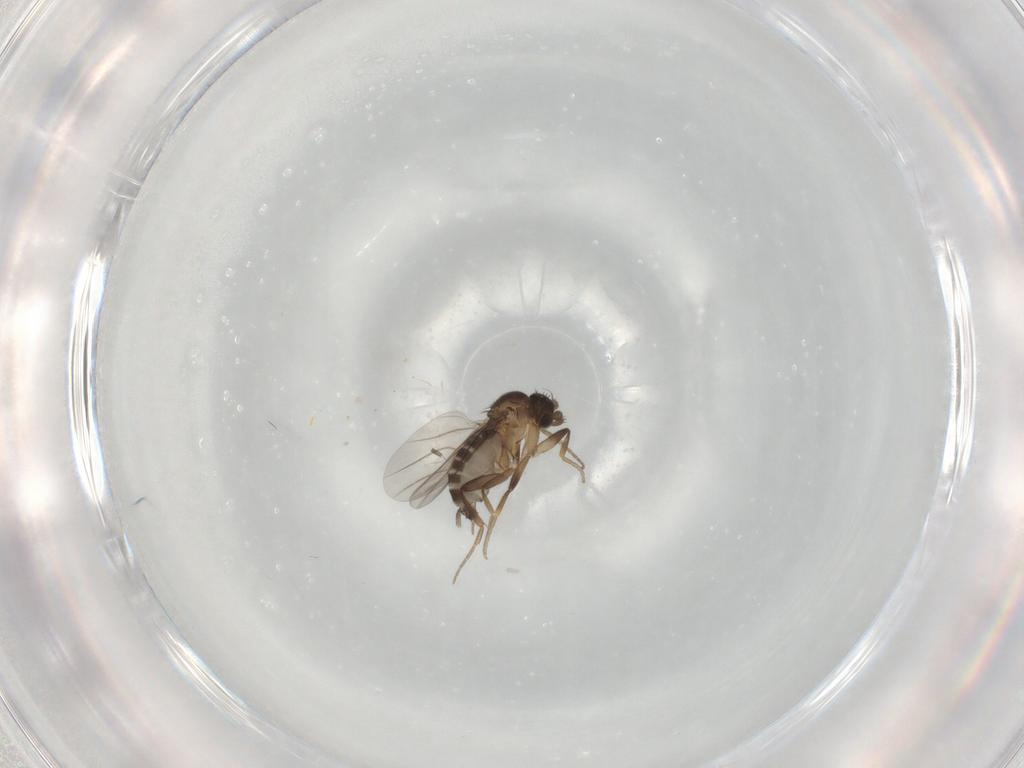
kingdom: Animalia
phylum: Arthropoda
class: Insecta
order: Diptera
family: Phoridae
